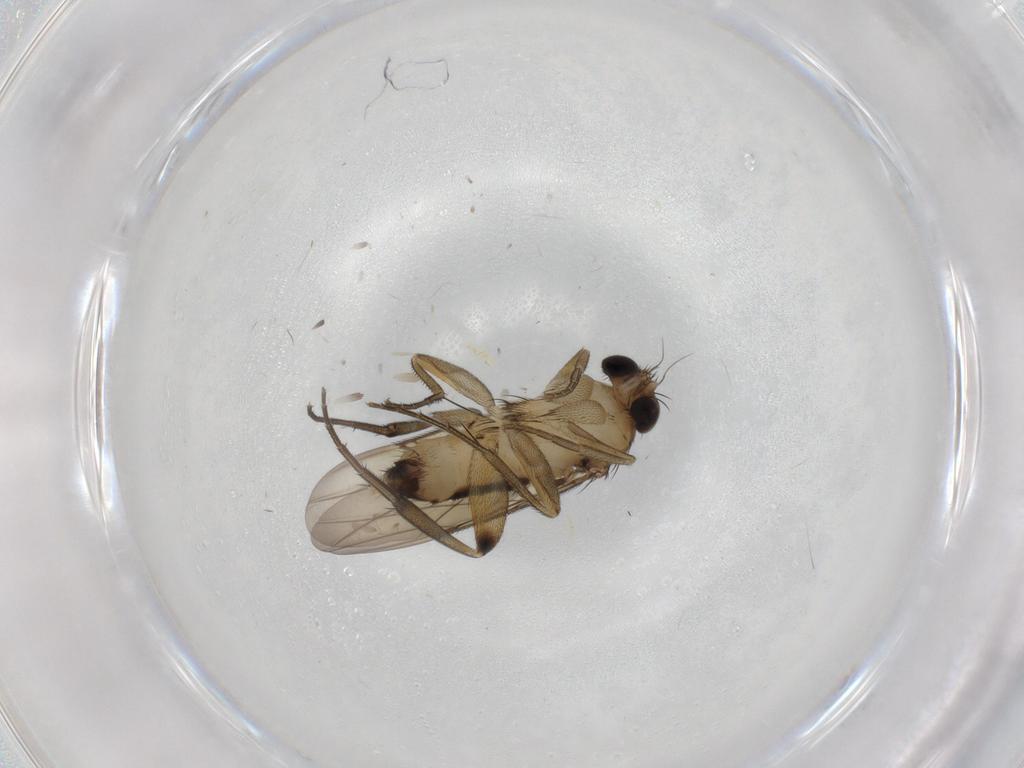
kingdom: Animalia
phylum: Arthropoda
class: Insecta
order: Diptera
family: Phoridae
